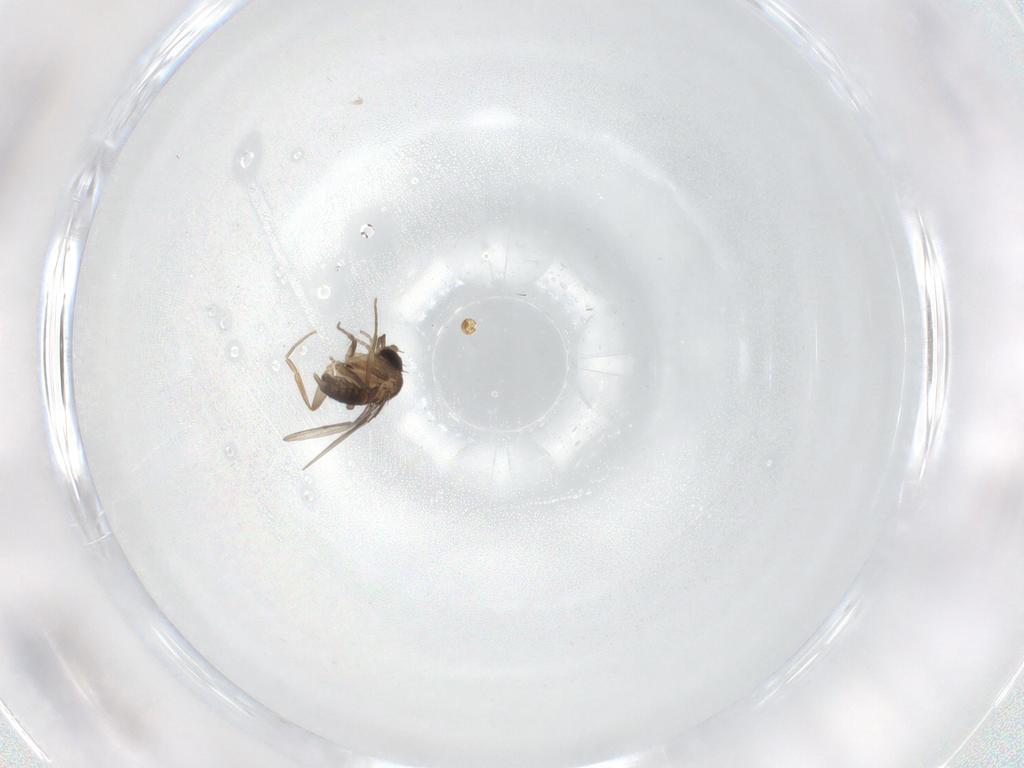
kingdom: Animalia
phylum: Arthropoda
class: Insecta
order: Diptera
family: Phoridae
